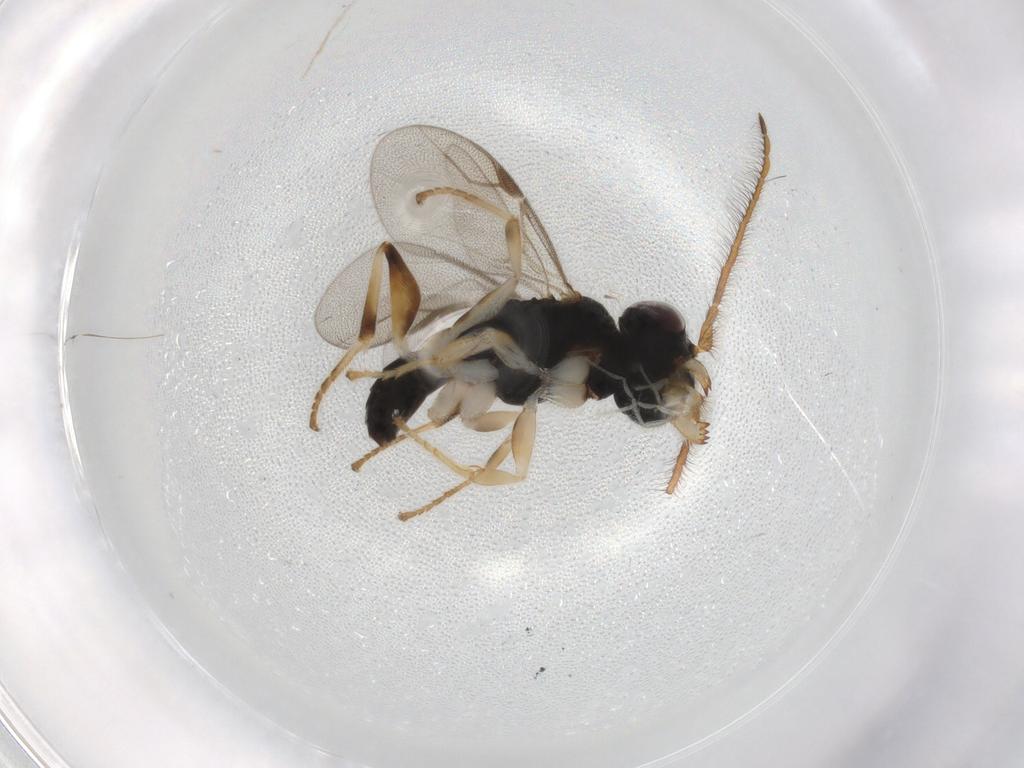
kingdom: Animalia
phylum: Arthropoda
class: Insecta
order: Hymenoptera
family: Dryinidae
